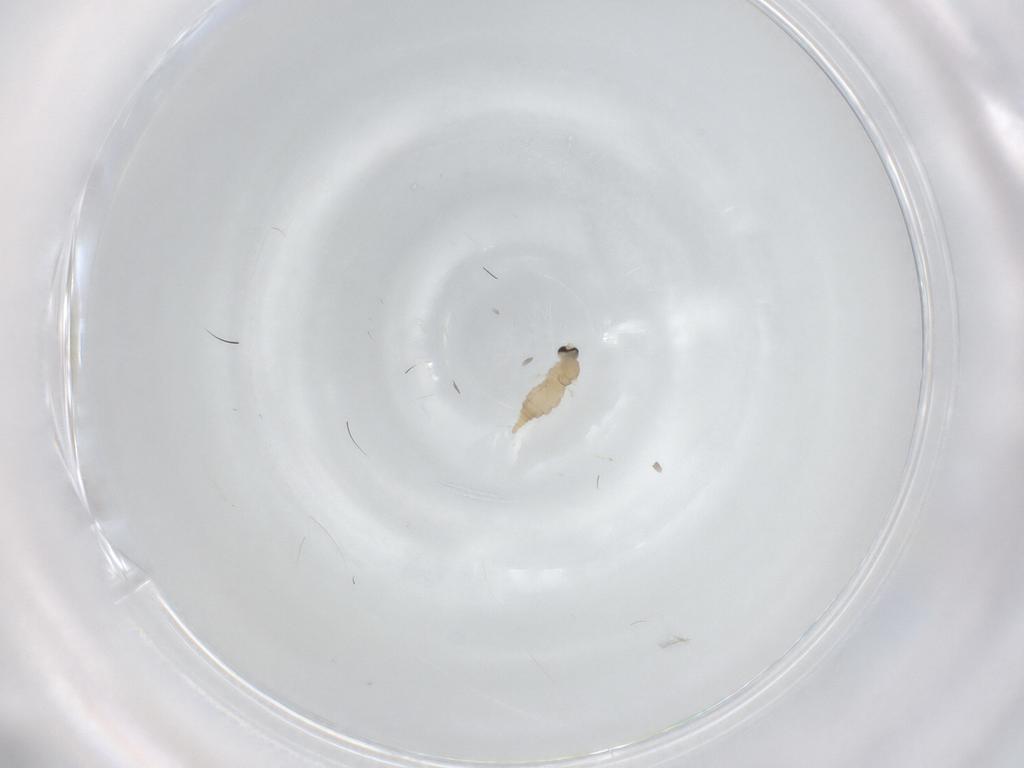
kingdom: Animalia
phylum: Arthropoda
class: Insecta
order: Diptera
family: Cecidomyiidae
